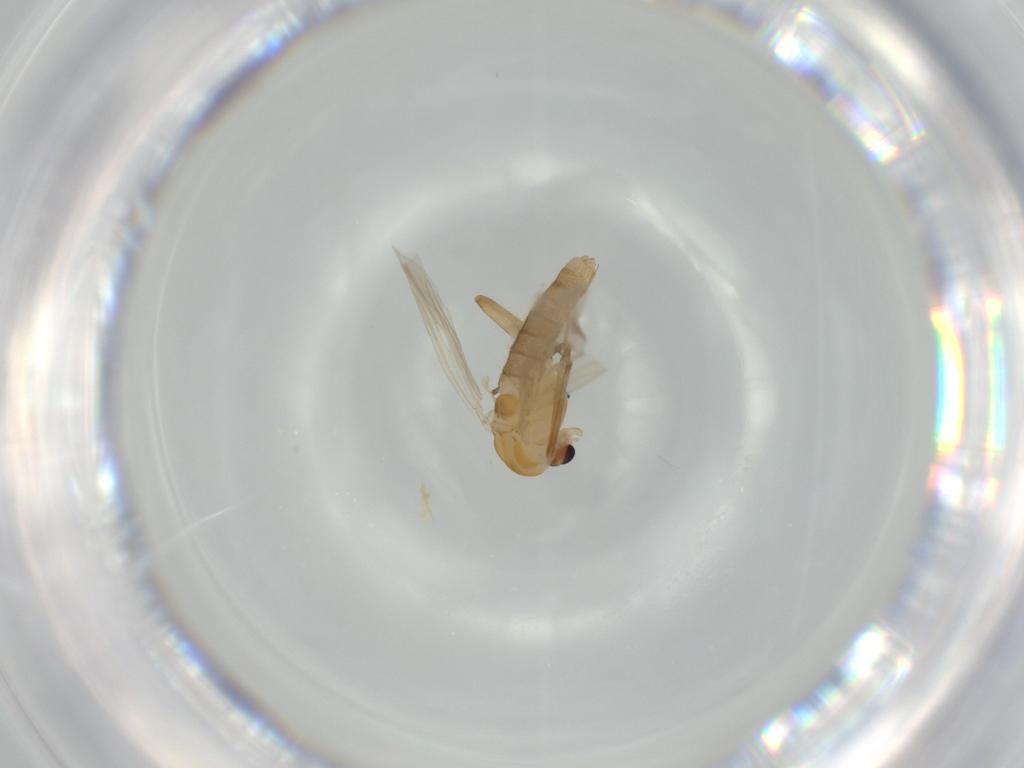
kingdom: Animalia
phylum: Arthropoda
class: Insecta
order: Diptera
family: Chironomidae
